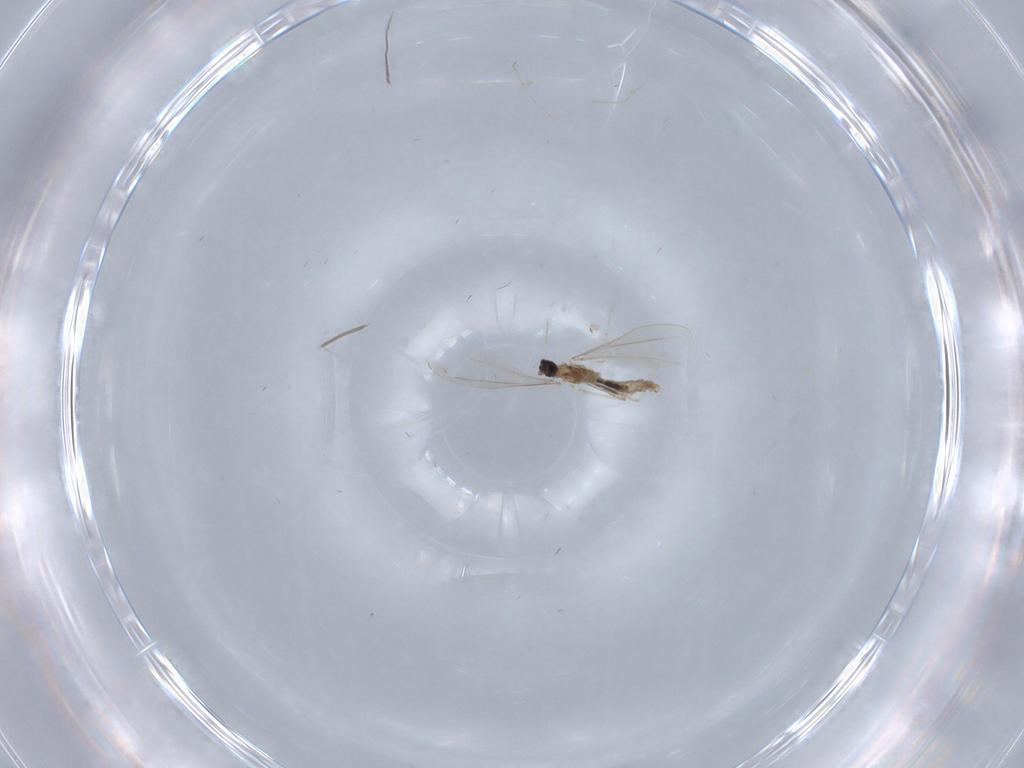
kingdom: Animalia
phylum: Arthropoda
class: Insecta
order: Diptera
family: Cecidomyiidae
